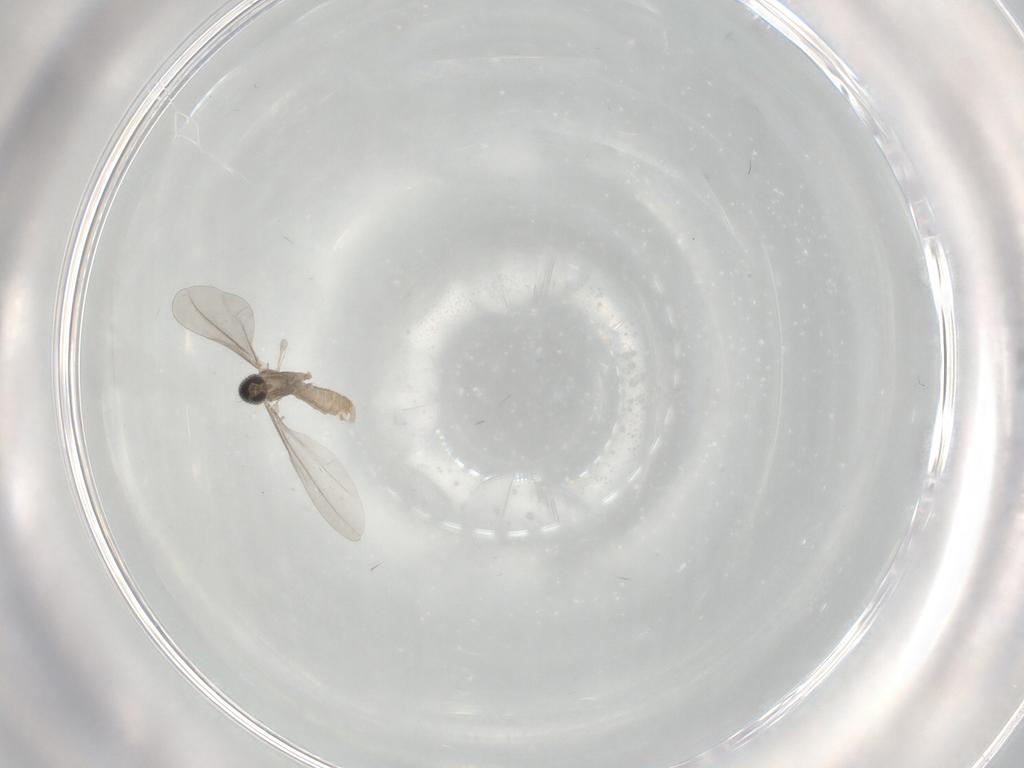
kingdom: Animalia
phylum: Arthropoda
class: Insecta
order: Diptera
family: Cecidomyiidae
